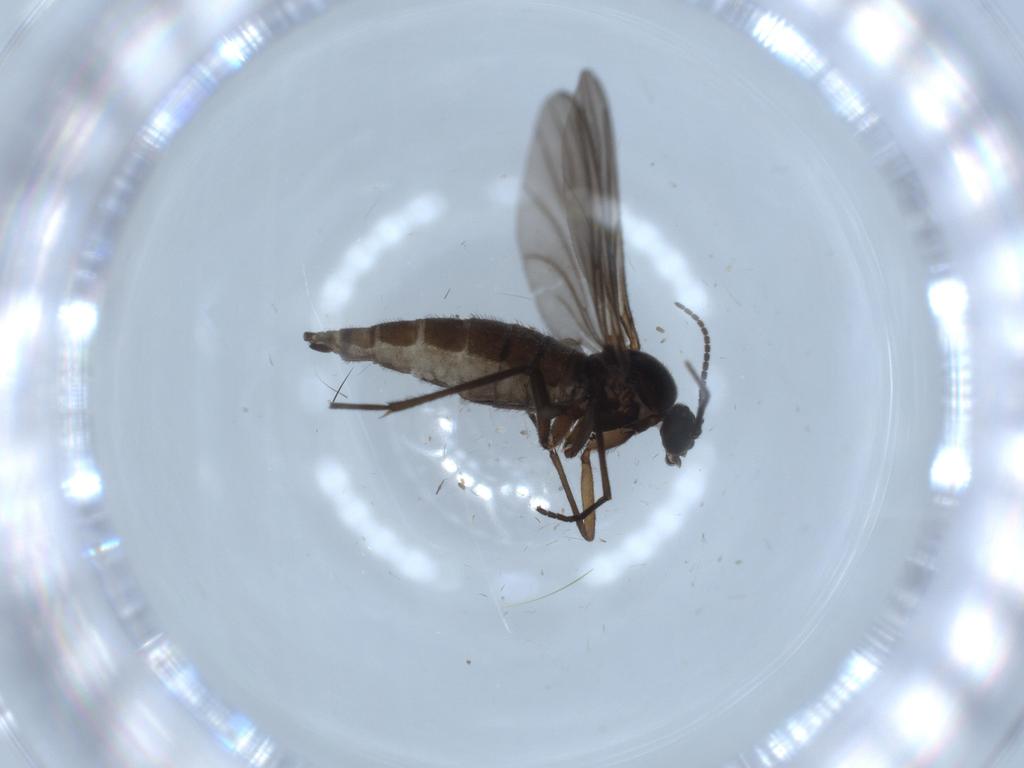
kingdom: Animalia
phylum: Arthropoda
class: Insecta
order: Diptera
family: Sciaridae
